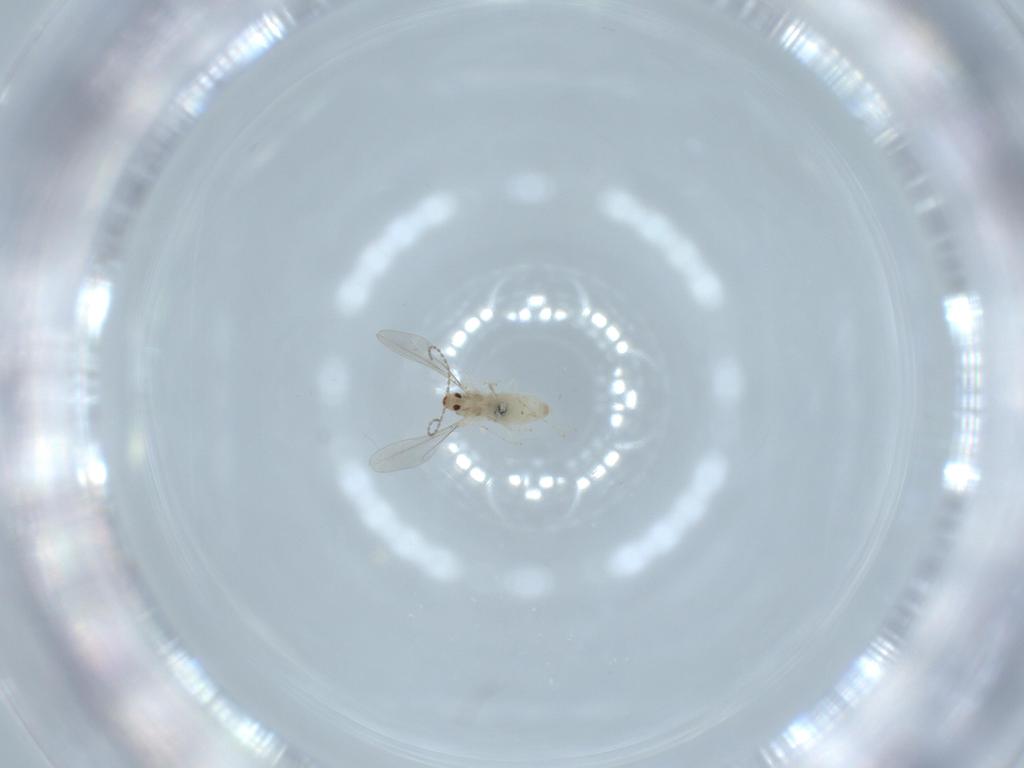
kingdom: Animalia
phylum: Arthropoda
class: Insecta
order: Diptera
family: Cecidomyiidae
